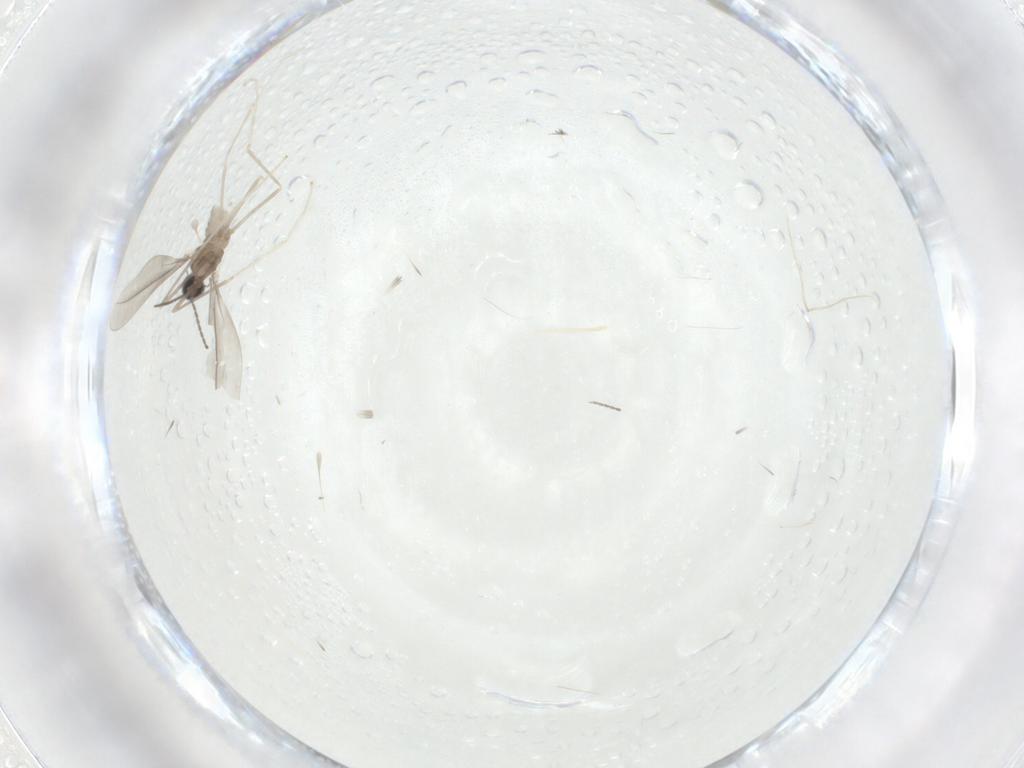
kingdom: Animalia
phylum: Arthropoda
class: Insecta
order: Diptera
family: Cecidomyiidae
